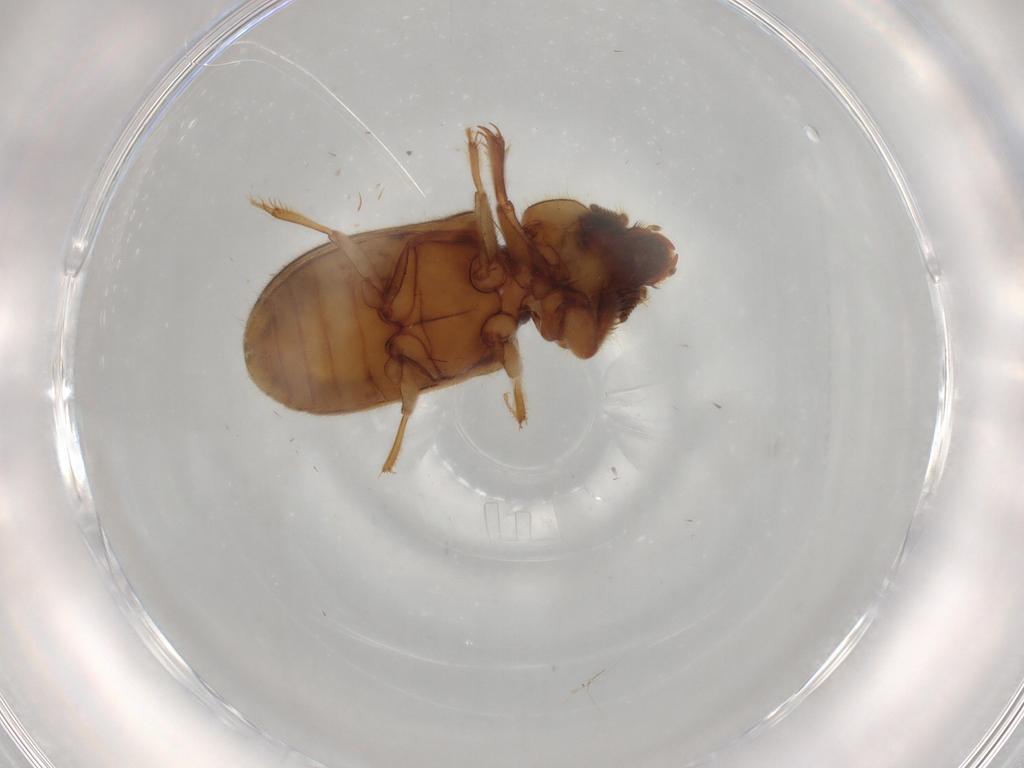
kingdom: Animalia
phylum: Arthropoda
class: Insecta
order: Coleoptera
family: Heteroceridae
